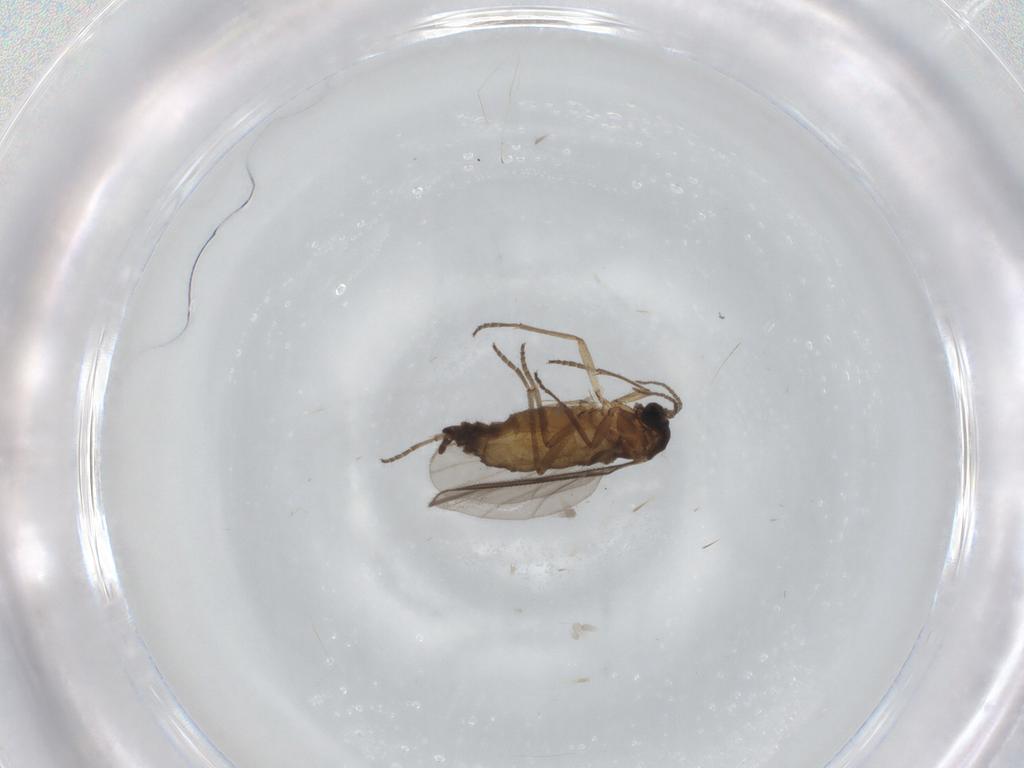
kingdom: Animalia
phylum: Arthropoda
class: Insecta
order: Diptera
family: Sciaridae
